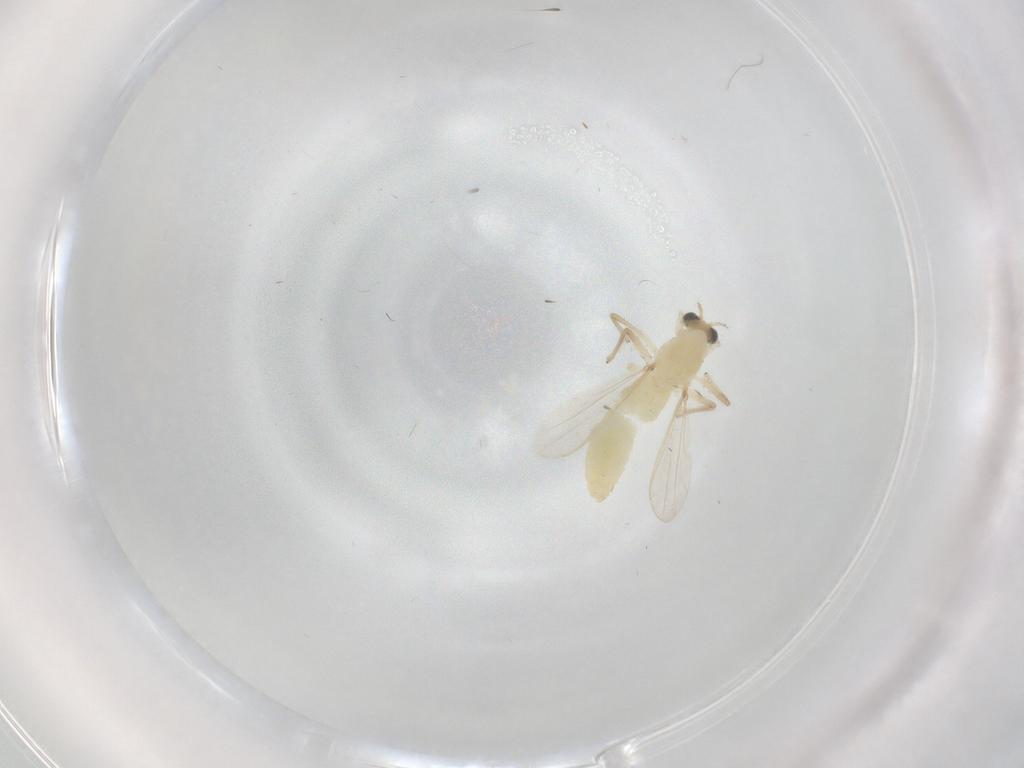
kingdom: Animalia
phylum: Arthropoda
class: Insecta
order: Diptera
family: Chironomidae
